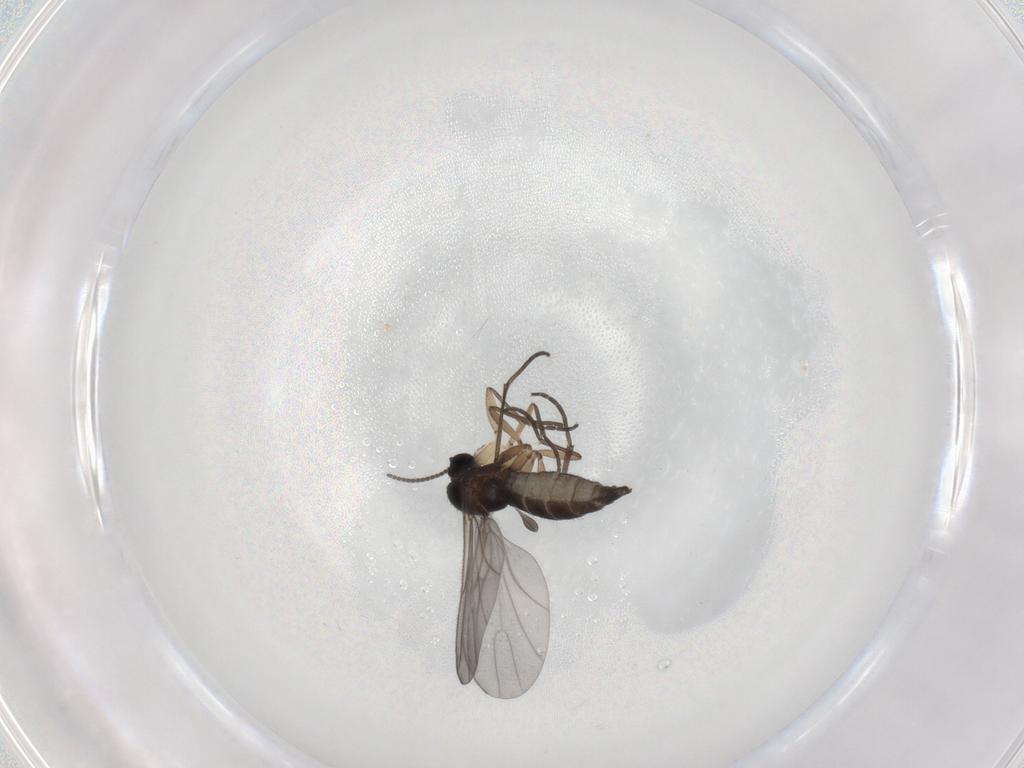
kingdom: Animalia
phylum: Arthropoda
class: Insecta
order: Diptera
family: Sciaridae
